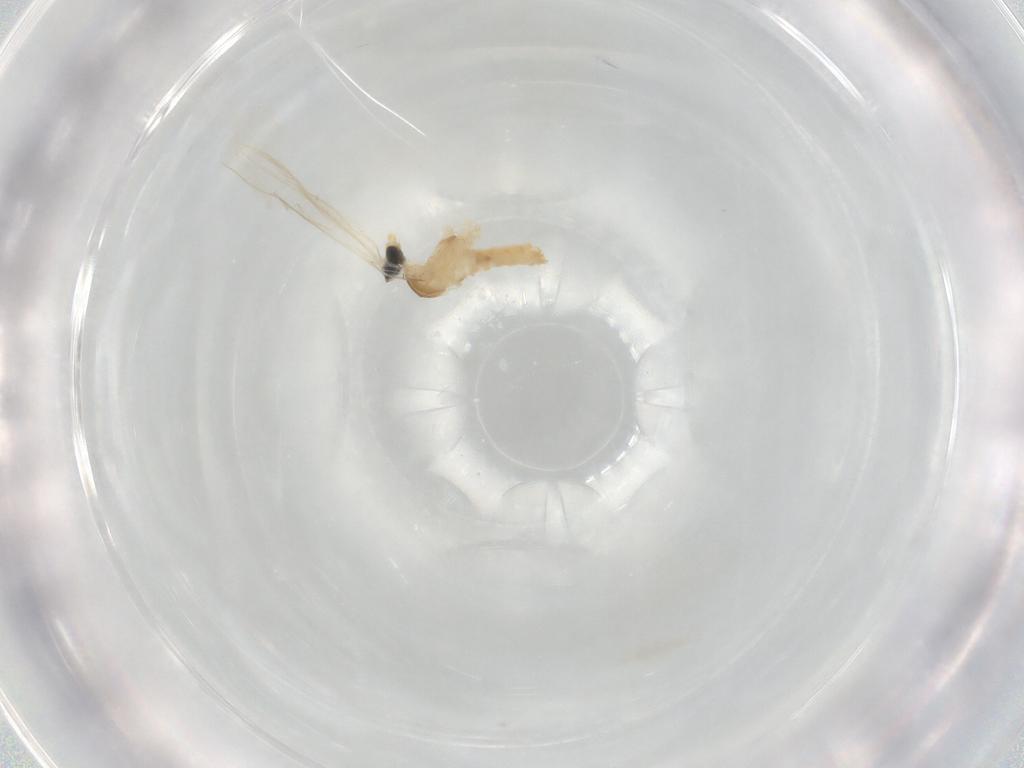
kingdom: Animalia
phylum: Arthropoda
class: Insecta
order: Diptera
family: Cecidomyiidae
